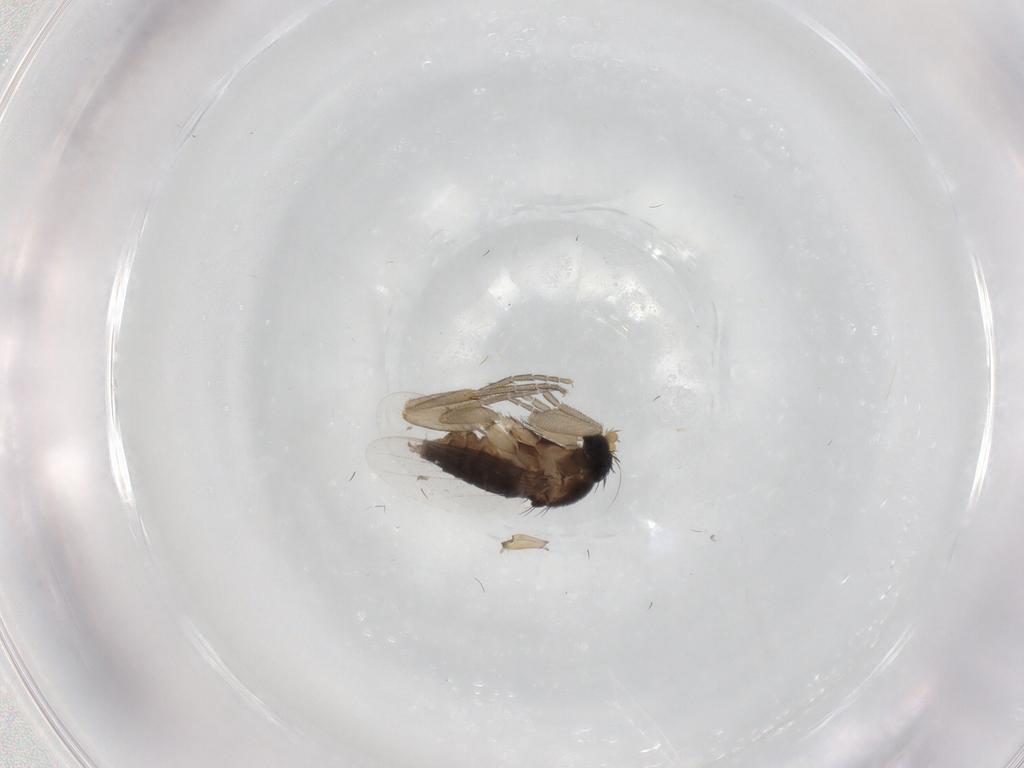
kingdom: Animalia
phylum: Arthropoda
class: Insecta
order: Diptera
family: Phoridae
